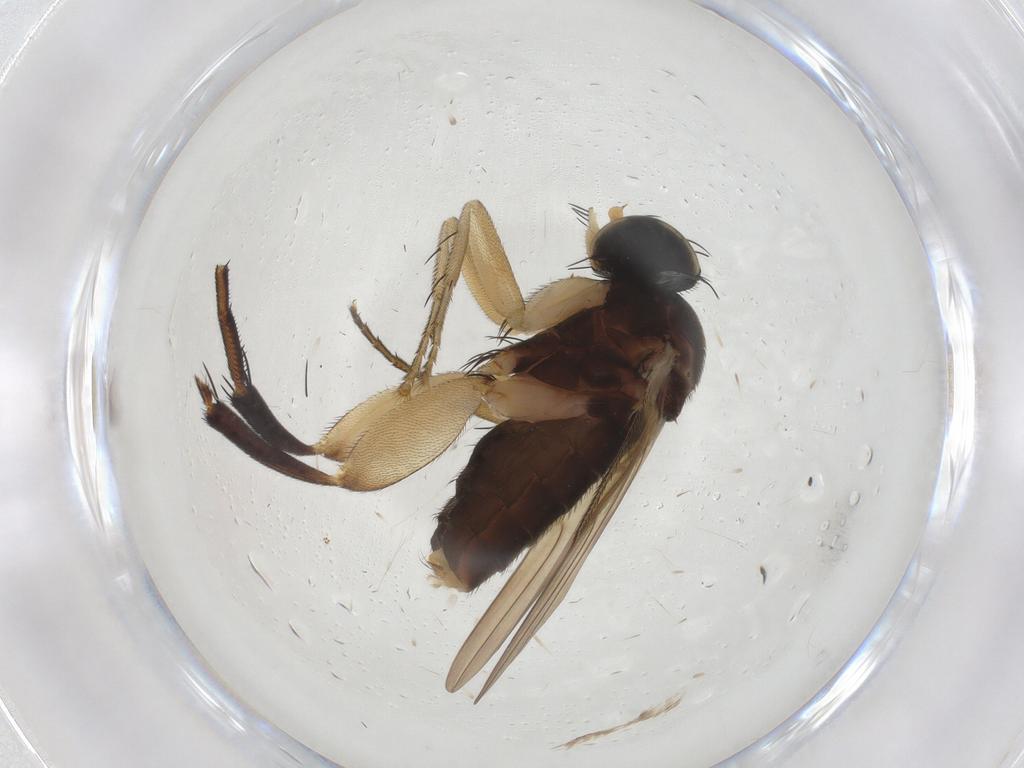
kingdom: Animalia
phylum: Arthropoda
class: Insecta
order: Diptera
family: Phoridae
